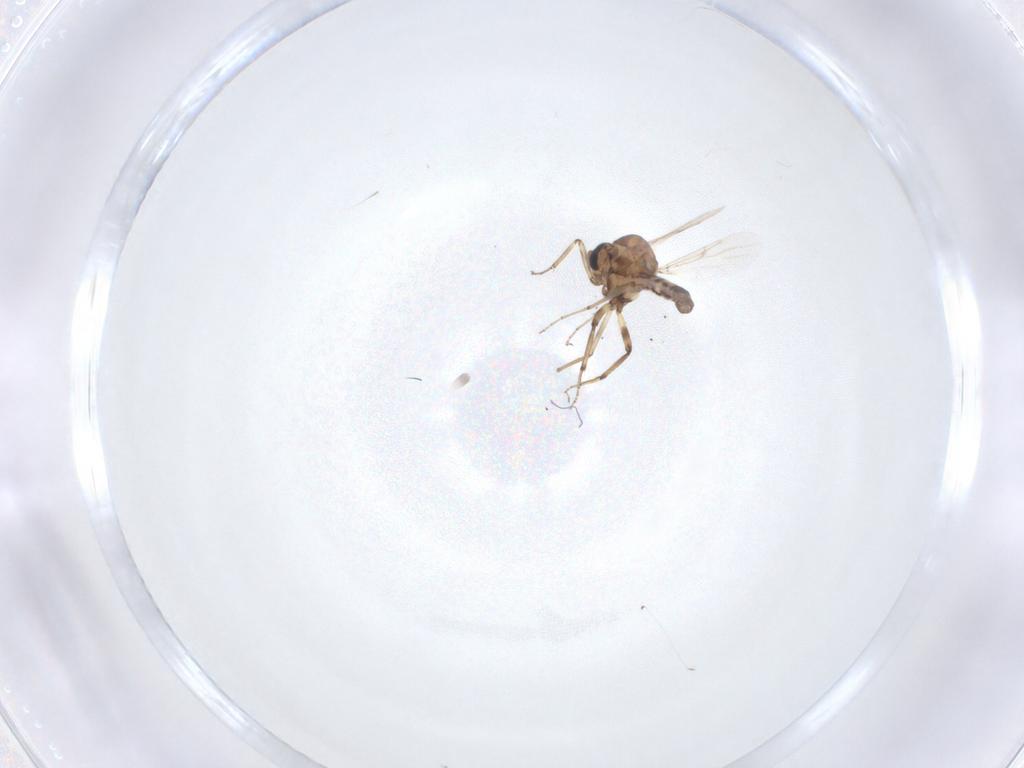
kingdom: Animalia
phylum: Arthropoda
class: Insecta
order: Diptera
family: Ceratopogonidae
